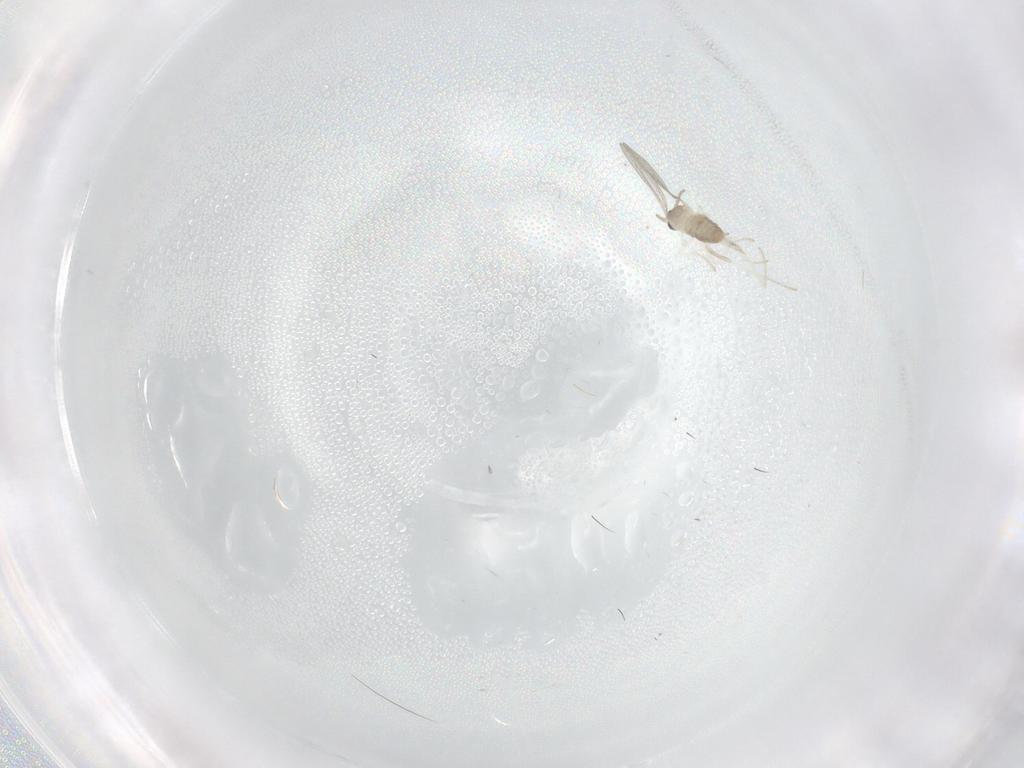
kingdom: Animalia
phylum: Arthropoda
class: Insecta
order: Diptera
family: Phoridae
